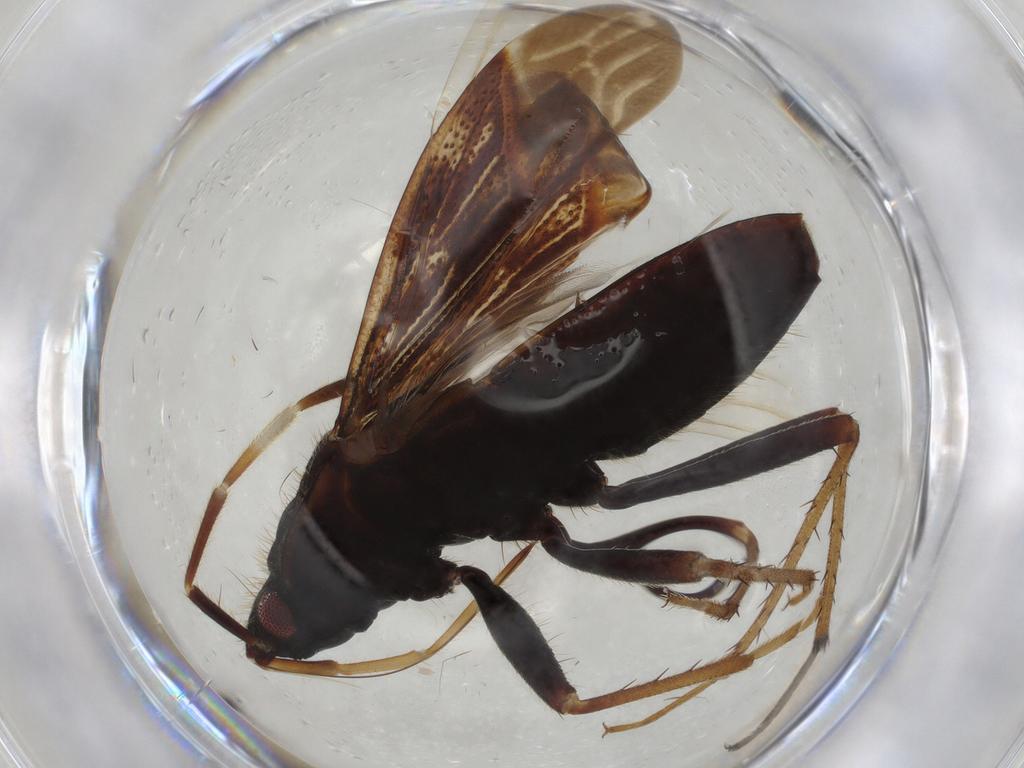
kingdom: Animalia
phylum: Arthropoda
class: Insecta
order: Hemiptera
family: Rhyparochromidae
